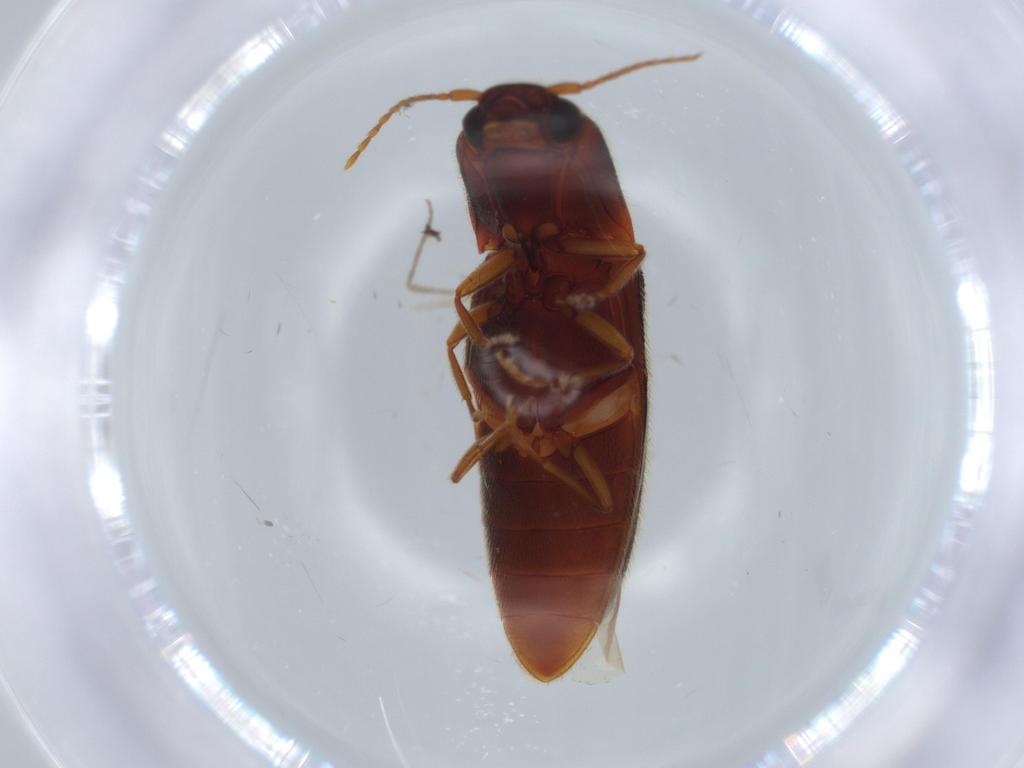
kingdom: Animalia
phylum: Arthropoda
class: Insecta
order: Coleoptera
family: Elateridae
